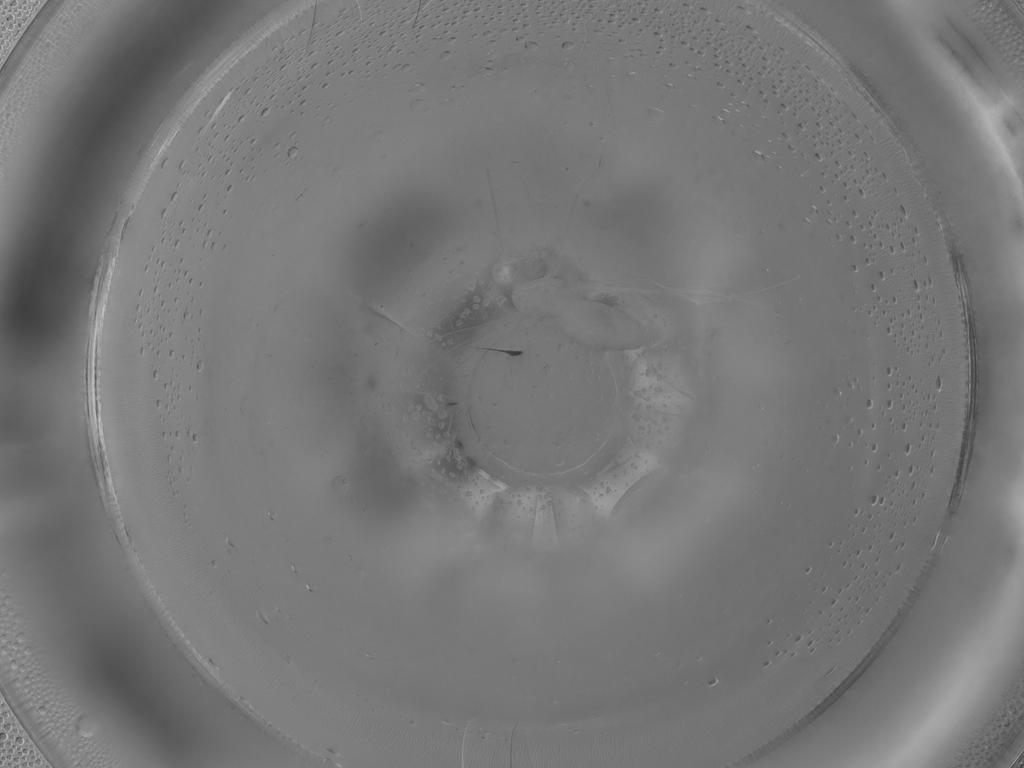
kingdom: Animalia
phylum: Arthropoda
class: Insecta
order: Diptera
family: Cecidomyiidae
